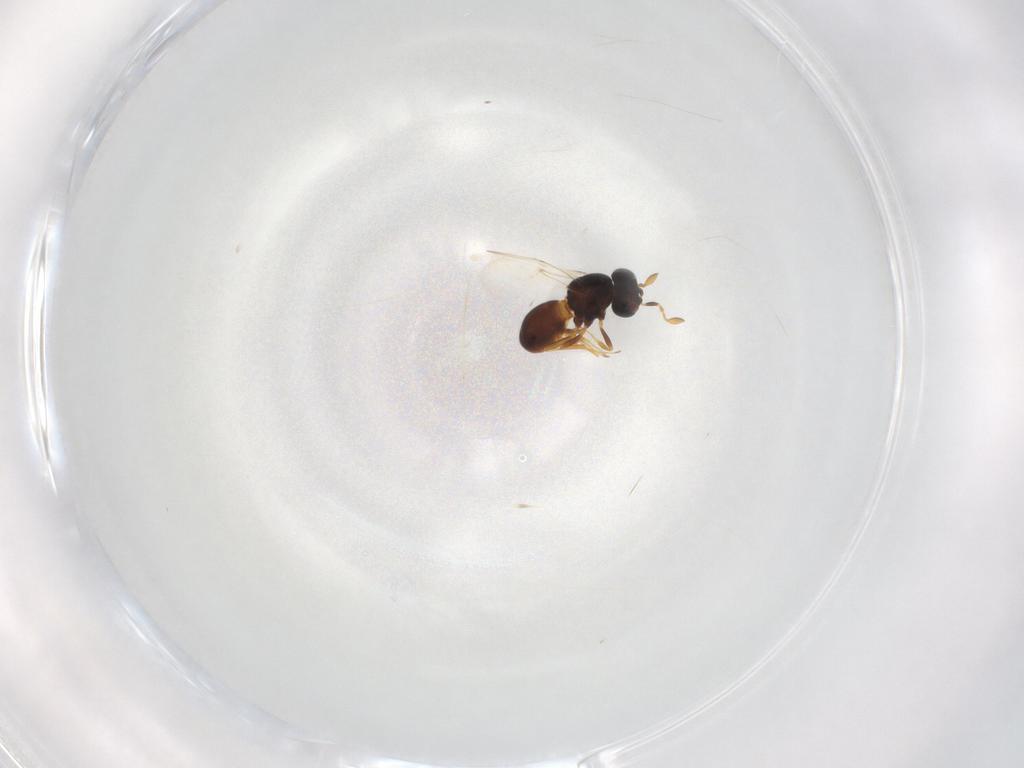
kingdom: Animalia
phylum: Arthropoda
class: Insecta
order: Hymenoptera
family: Scelionidae
